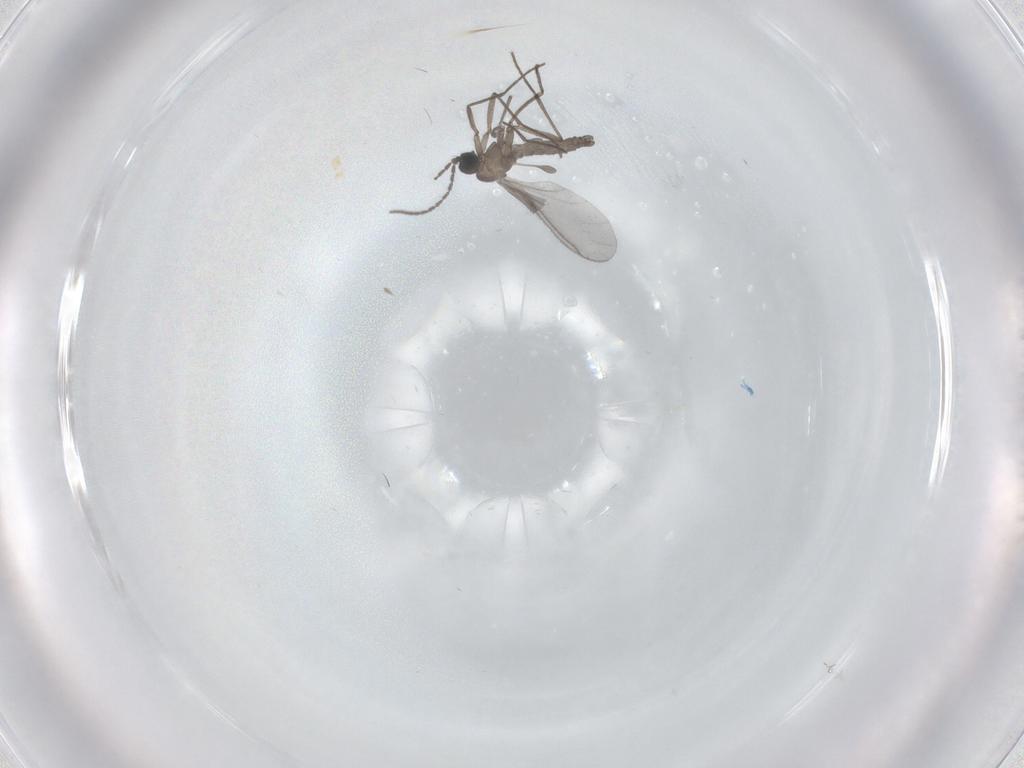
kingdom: Animalia
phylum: Arthropoda
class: Insecta
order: Diptera
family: Sciaridae
